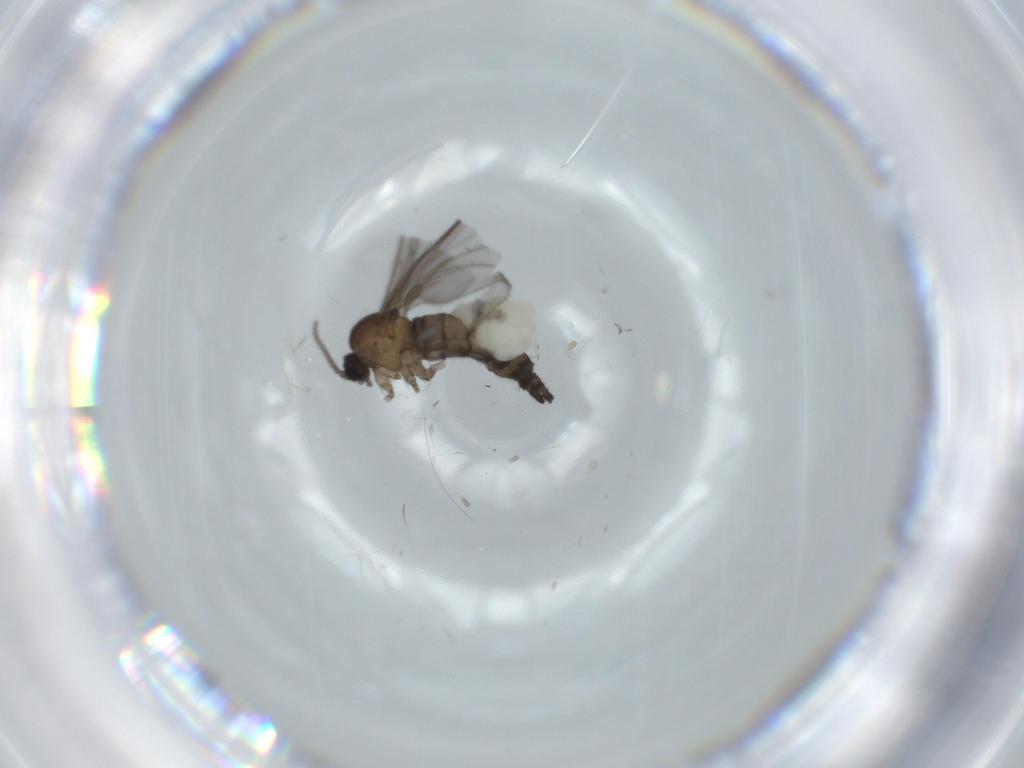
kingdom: Animalia
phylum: Arthropoda
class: Insecta
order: Diptera
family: Sciaridae
